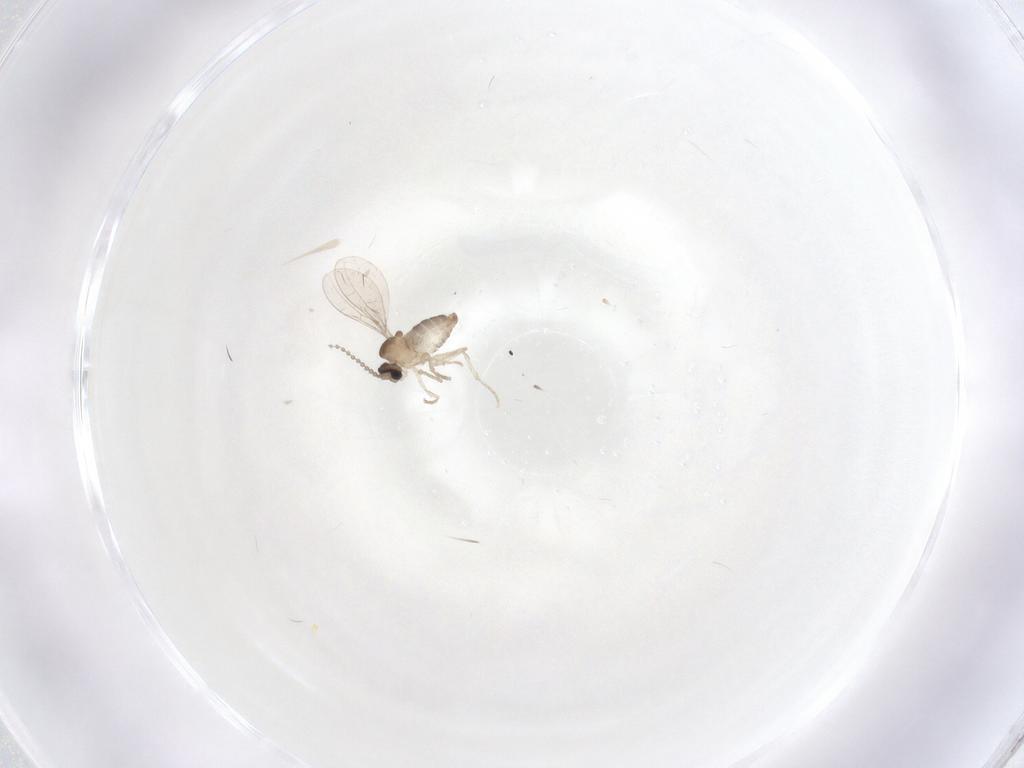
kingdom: Animalia
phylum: Arthropoda
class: Insecta
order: Diptera
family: Cecidomyiidae
